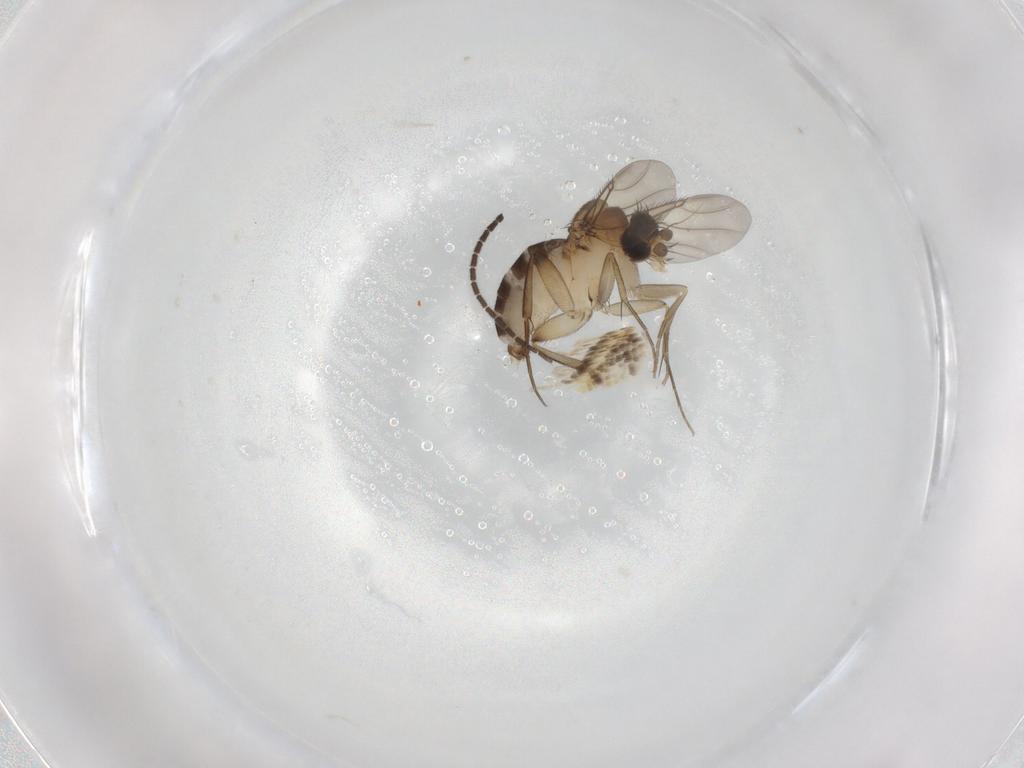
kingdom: Animalia
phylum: Arthropoda
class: Insecta
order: Diptera
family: Phoridae
